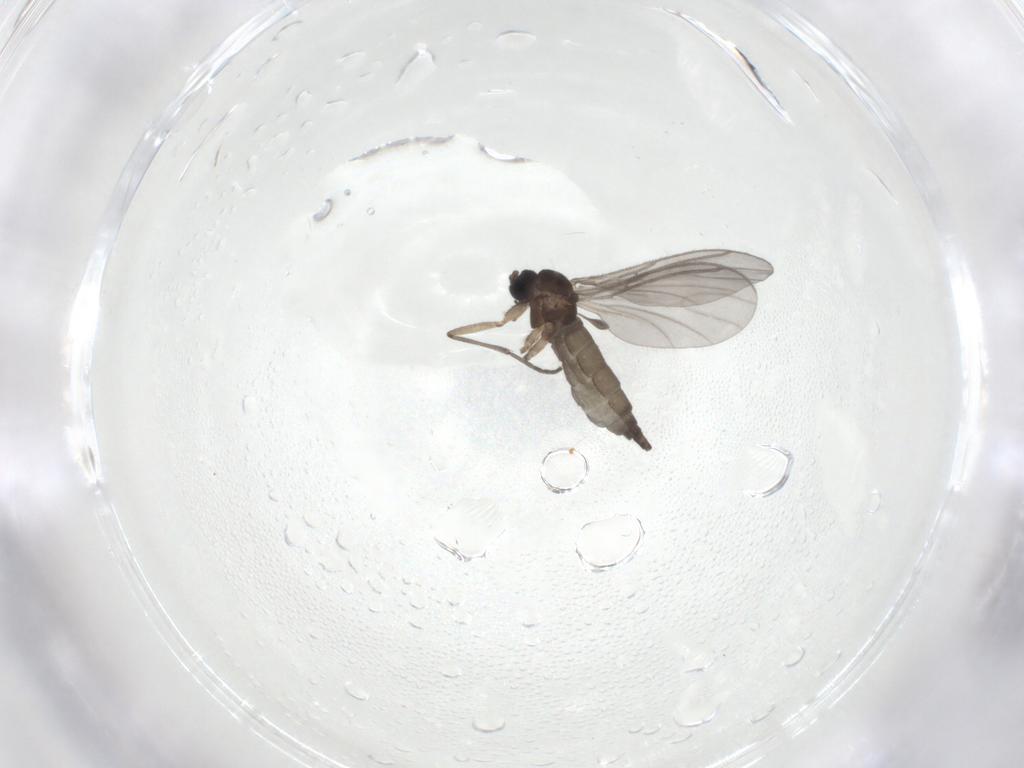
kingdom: Animalia
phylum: Arthropoda
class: Insecta
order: Diptera
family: Sciaridae
